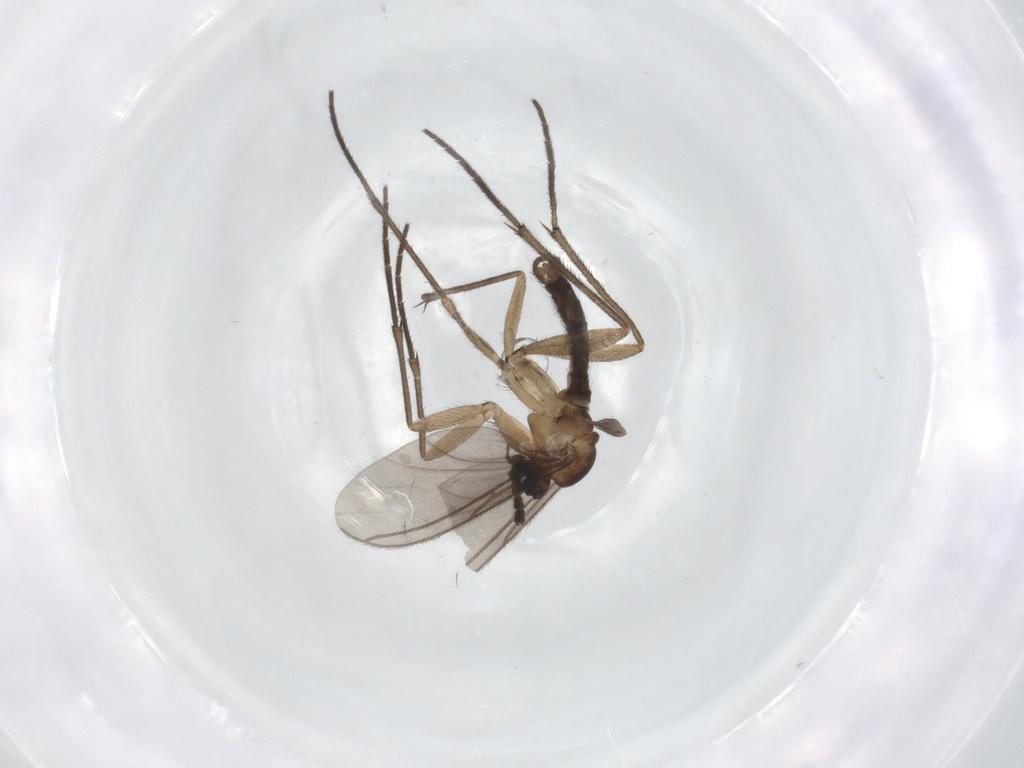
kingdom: Animalia
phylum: Arthropoda
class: Insecta
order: Diptera
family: Sciaridae
